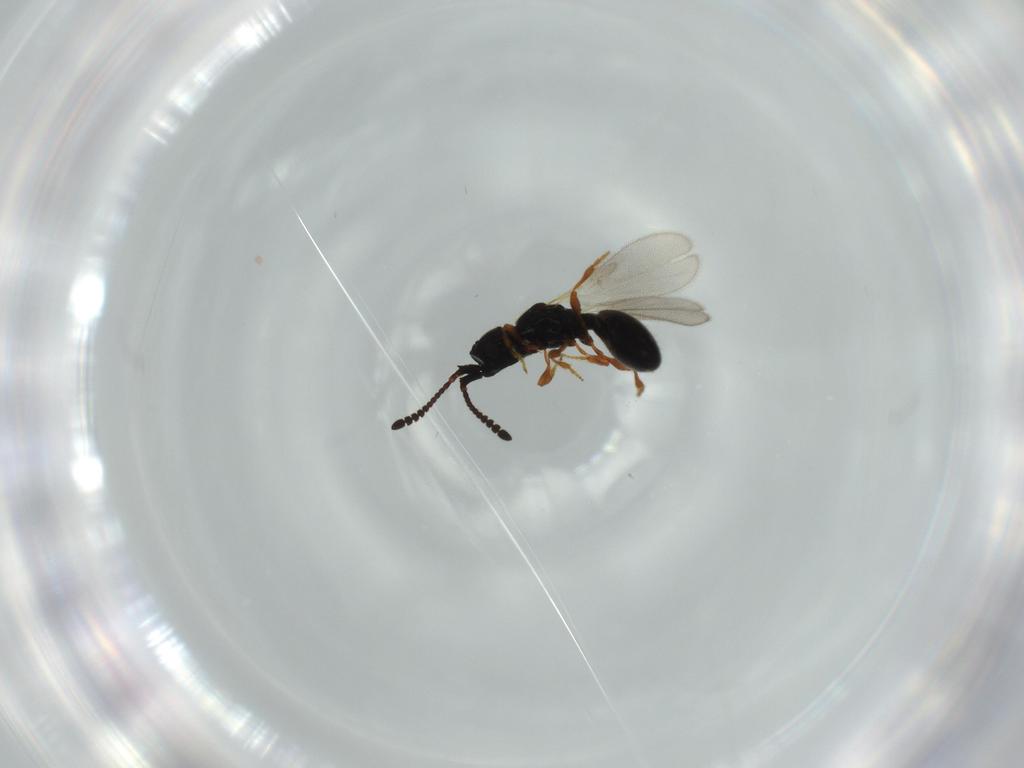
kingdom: Animalia
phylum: Arthropoda
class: Insecta
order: Hymenoptera
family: Diapriidae
